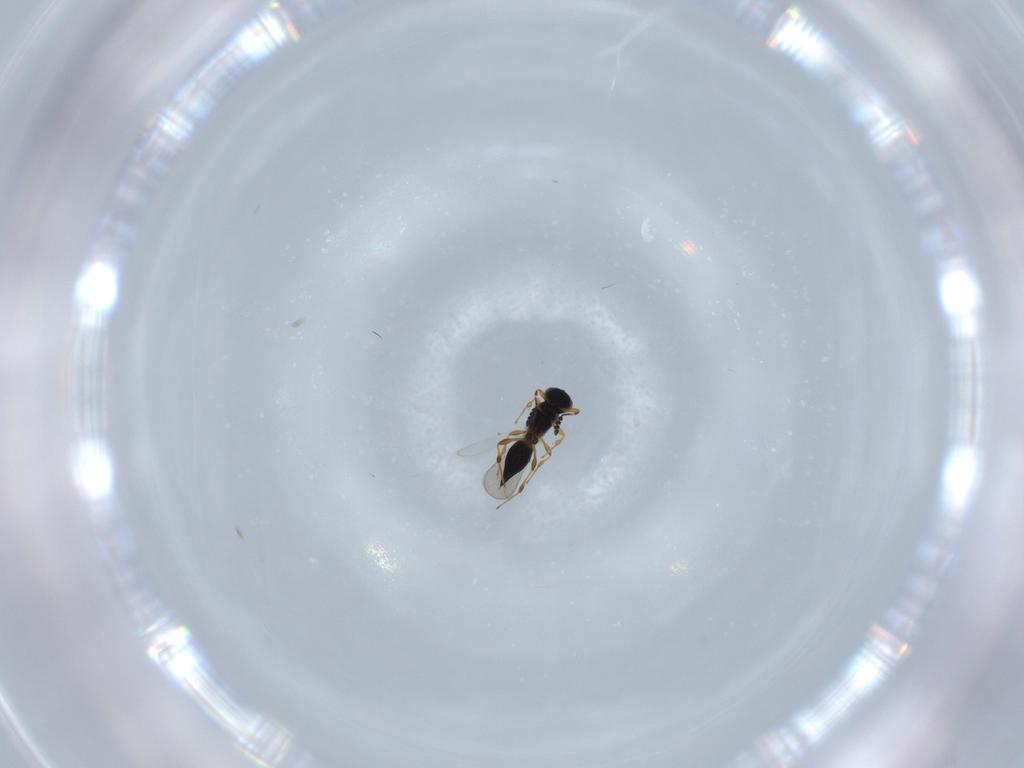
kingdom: Animalia
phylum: Arthropoda
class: Insecta
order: Hymenoptera
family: Platygastridae
